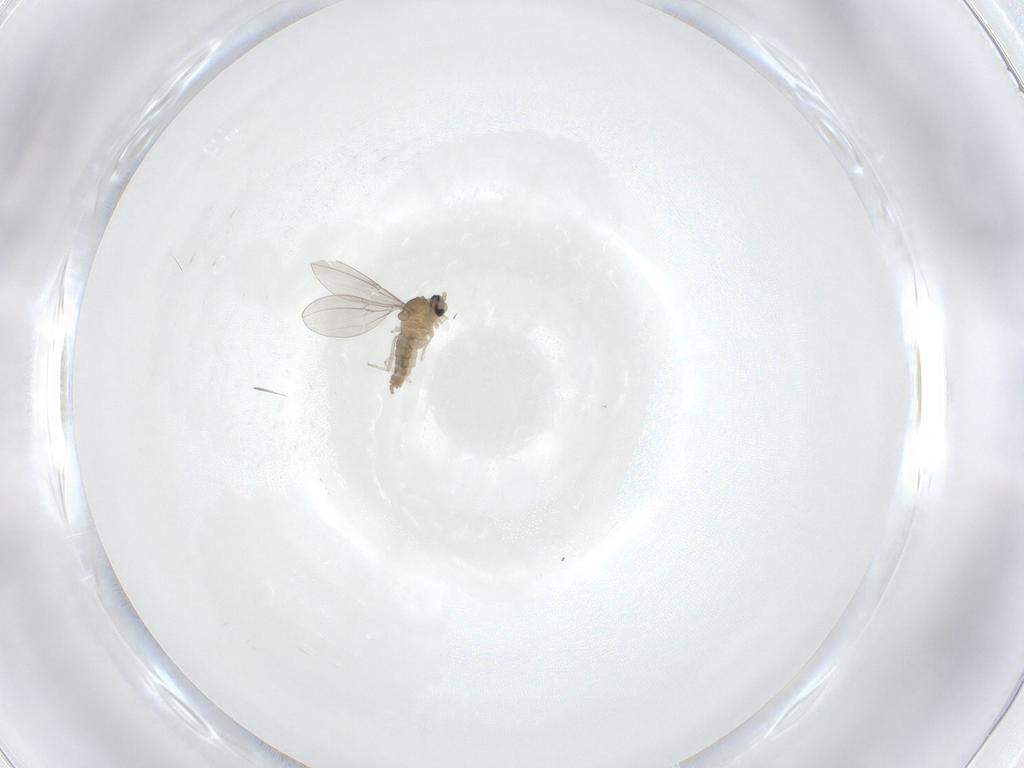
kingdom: Animalia
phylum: Arthropoda
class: Insecta
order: Diptera
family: Cecidomyiidae
